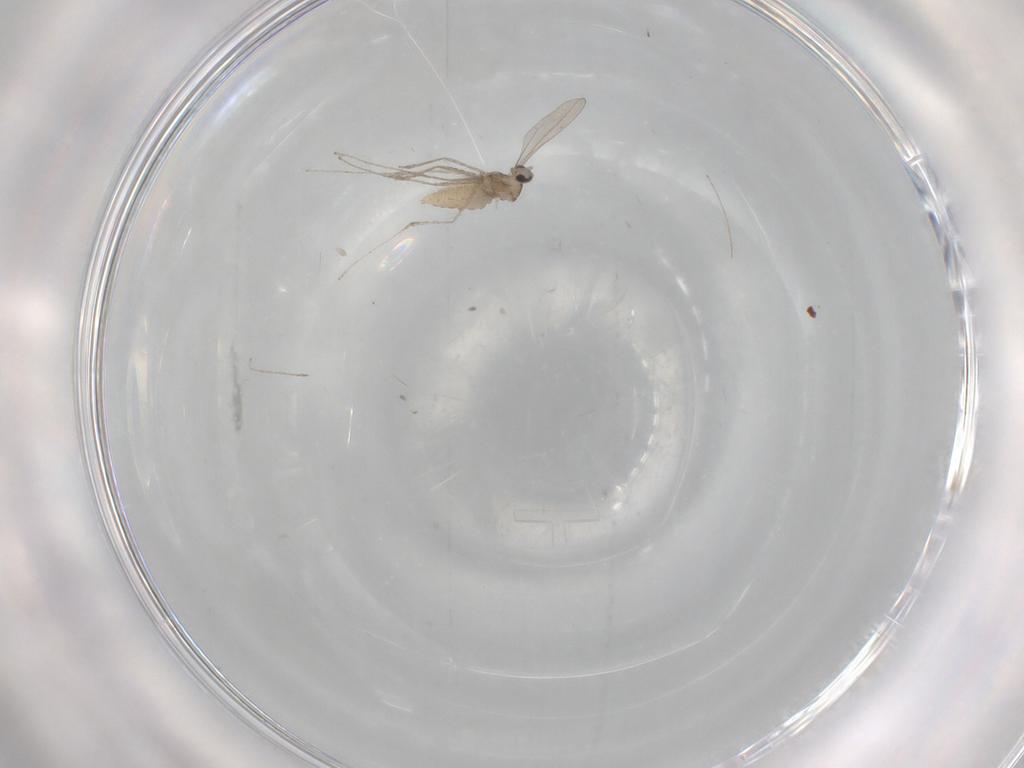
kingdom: Animalia
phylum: Arthropoda
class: Insecta
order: Diptera
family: Cecidomyiidae
